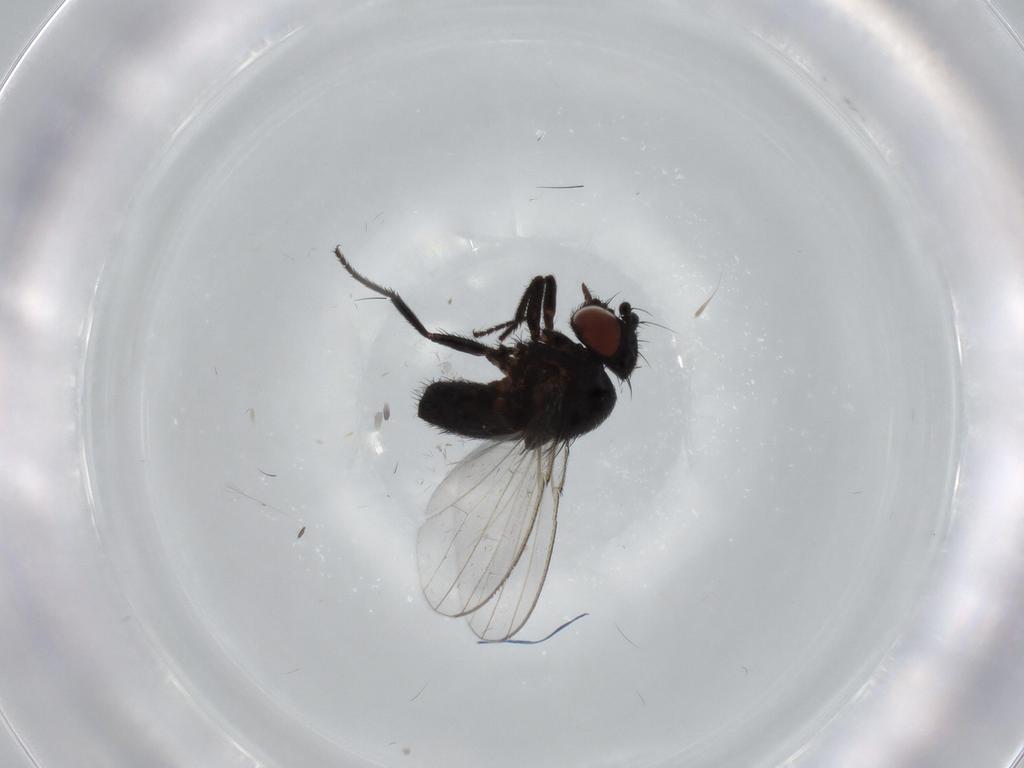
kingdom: Animalia
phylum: Arthropoda
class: Insecta
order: Diptera
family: Milichiidae
